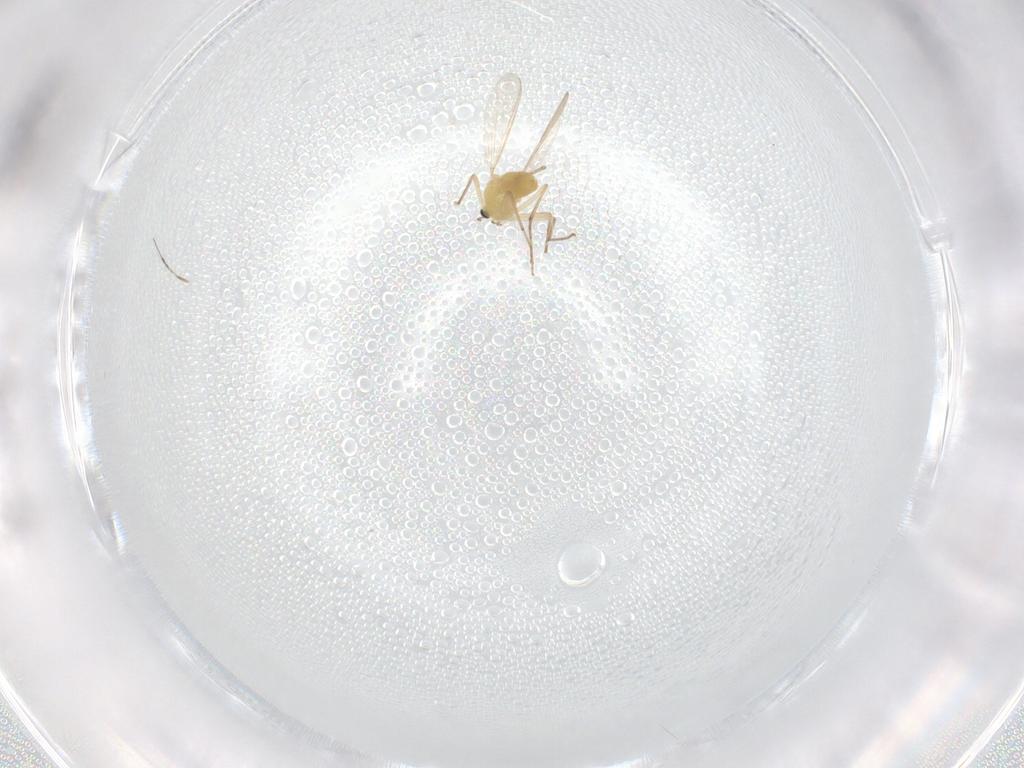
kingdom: Animalia
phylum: Arthropoda
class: Insecta
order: Diptera
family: Chironomidae
